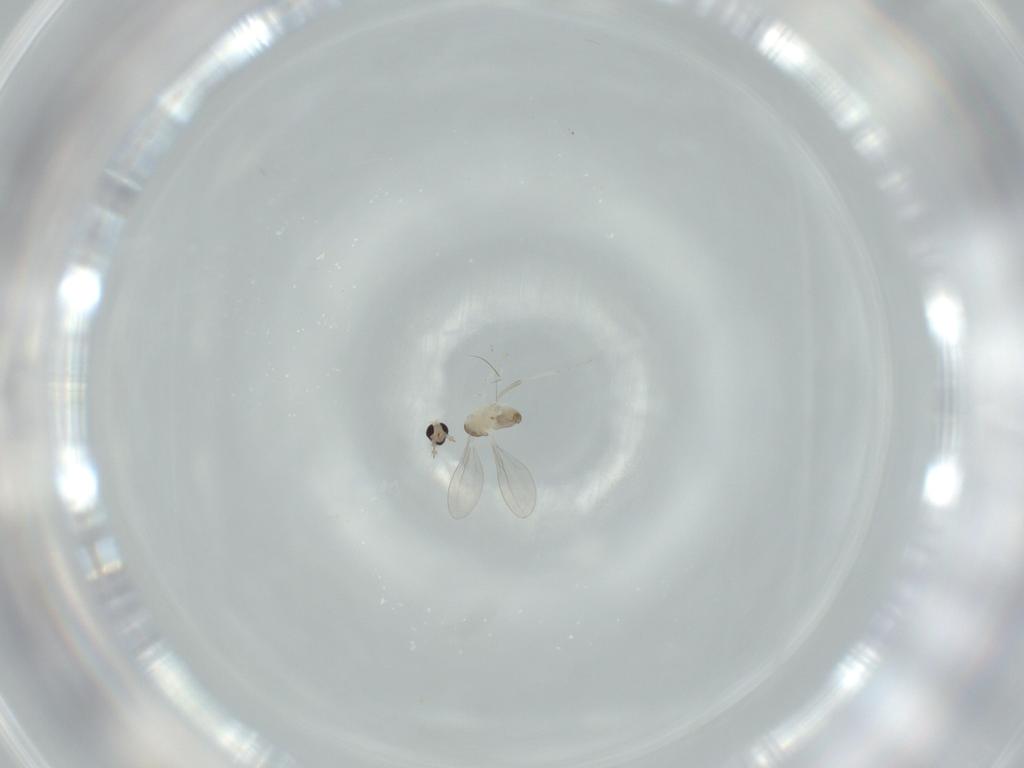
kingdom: Animalia
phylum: Arthropoda
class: Insecta
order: Diptera
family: Cecidomyiidae
